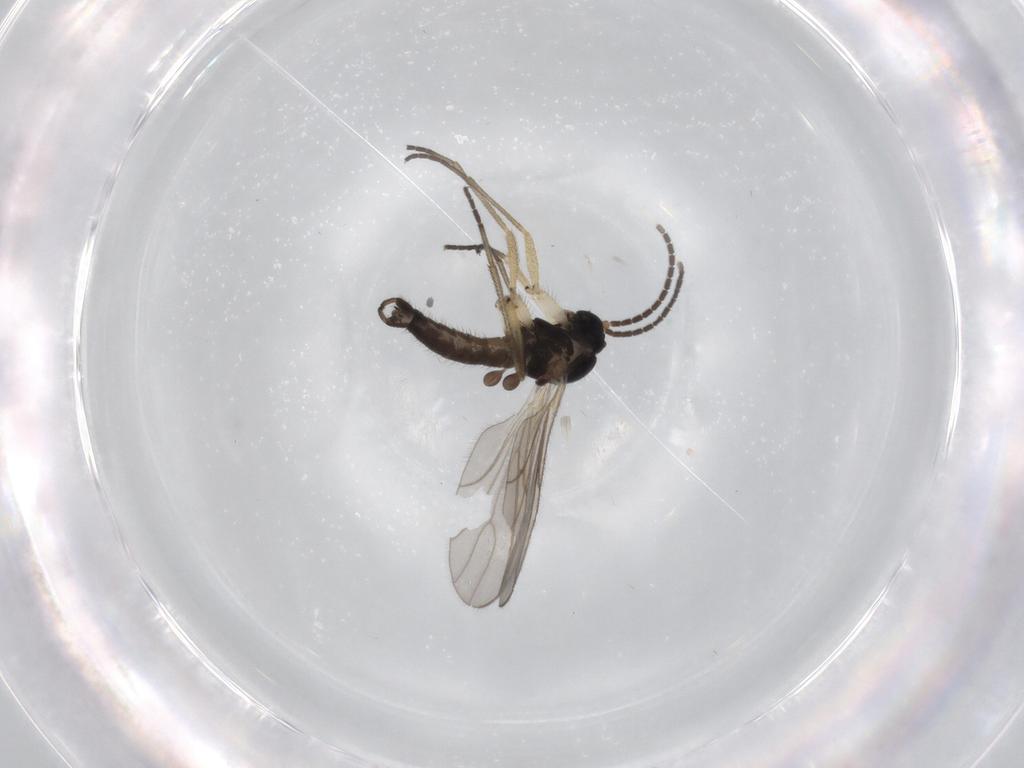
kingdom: Animalia
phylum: Arthropoda
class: Insecta
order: Diptera
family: Sciaridae
